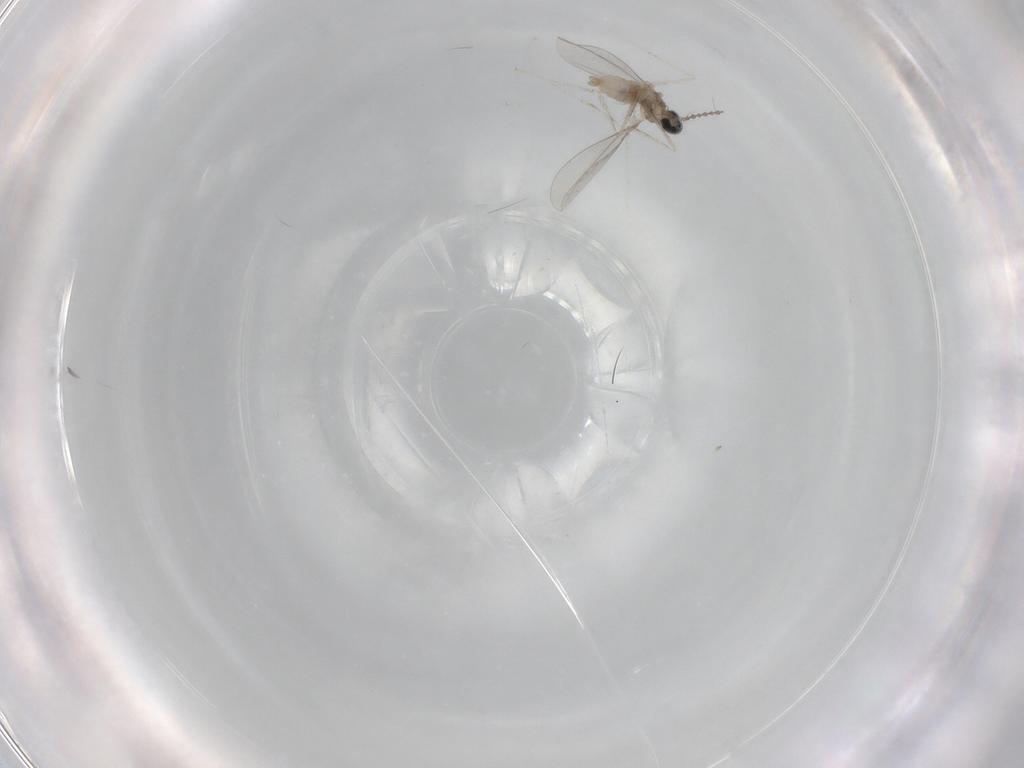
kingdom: Animalia
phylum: Arthropoda
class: Insecta
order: Diptera
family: Cecidomyiidae
